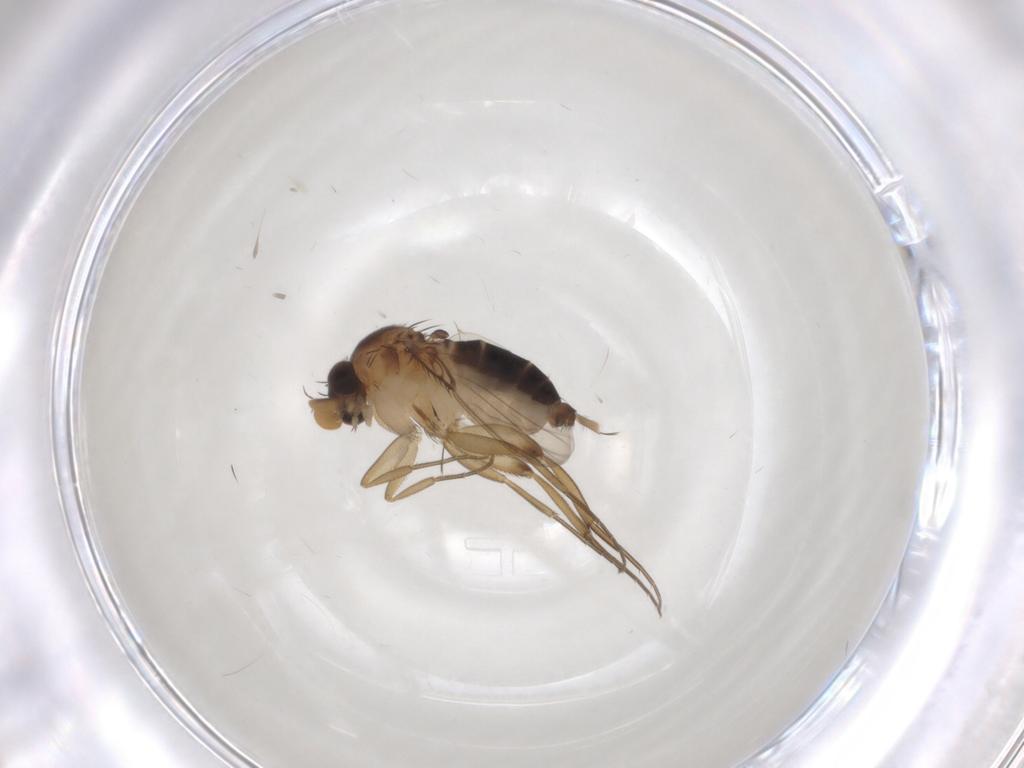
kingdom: Animalia
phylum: Arthropoda
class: Insecta
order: Diptera
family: Phoridae
